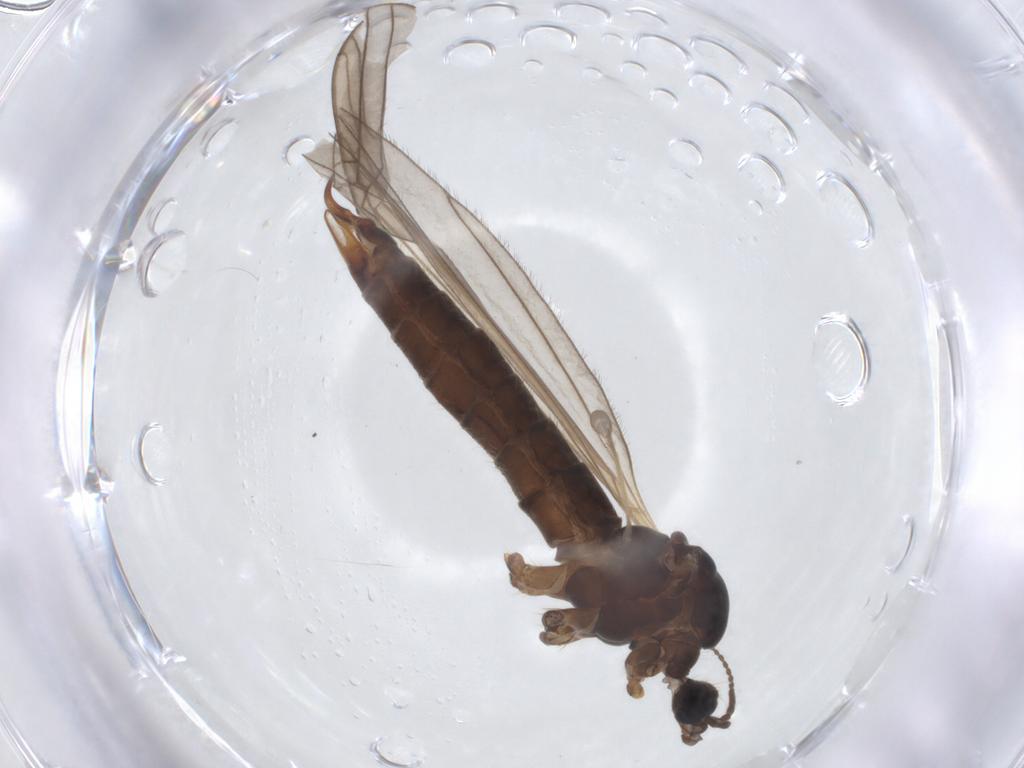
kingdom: Animalia
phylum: Arthropoda
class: Insecta
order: Diptera
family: Limoniidae
